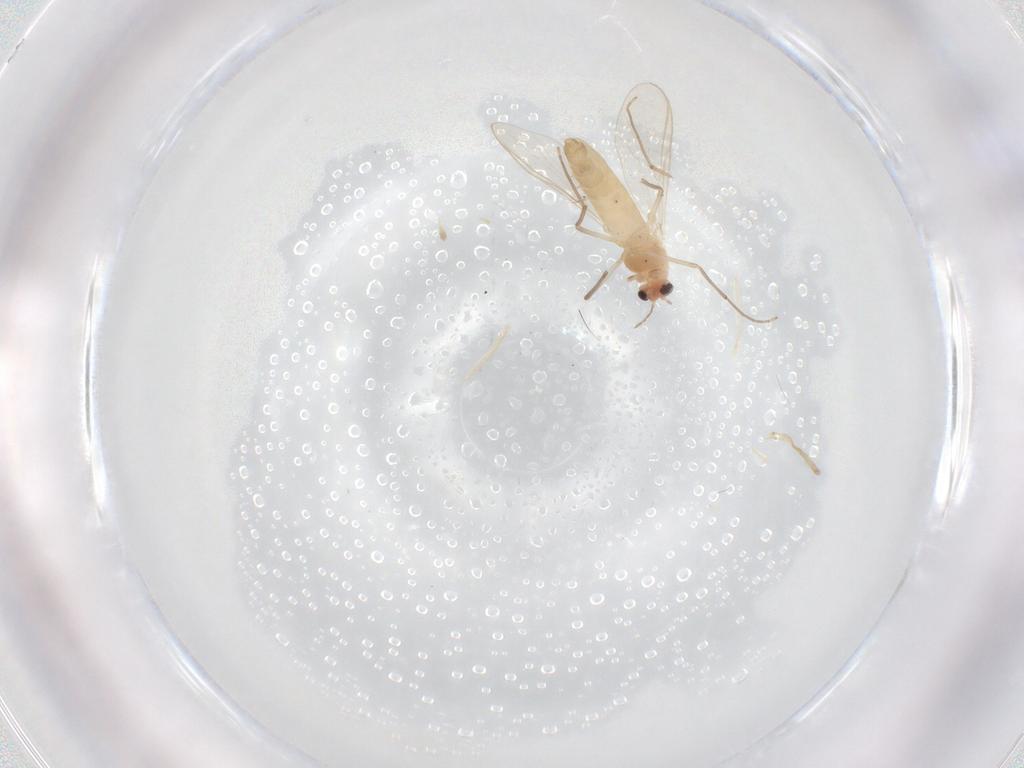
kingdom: Animalia
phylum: Arthropoda
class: Insecta
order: Diptera
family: Chironomidae
